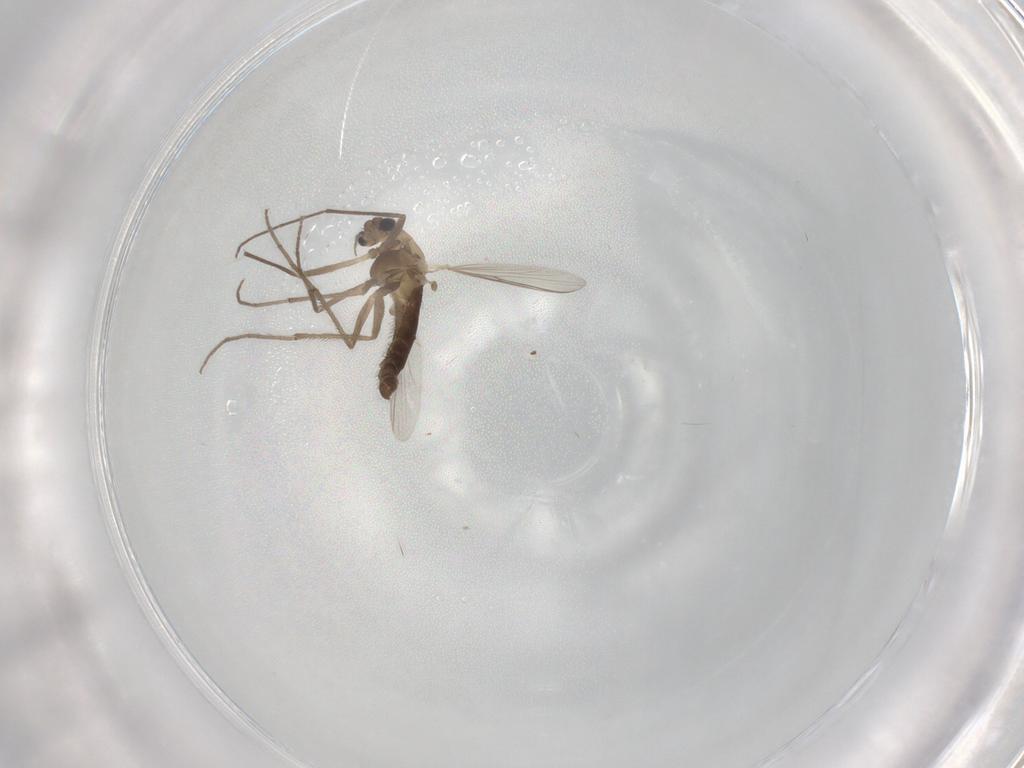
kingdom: Animalia
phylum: Arthropoda
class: Insecta
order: Diptera
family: Chironomidae
